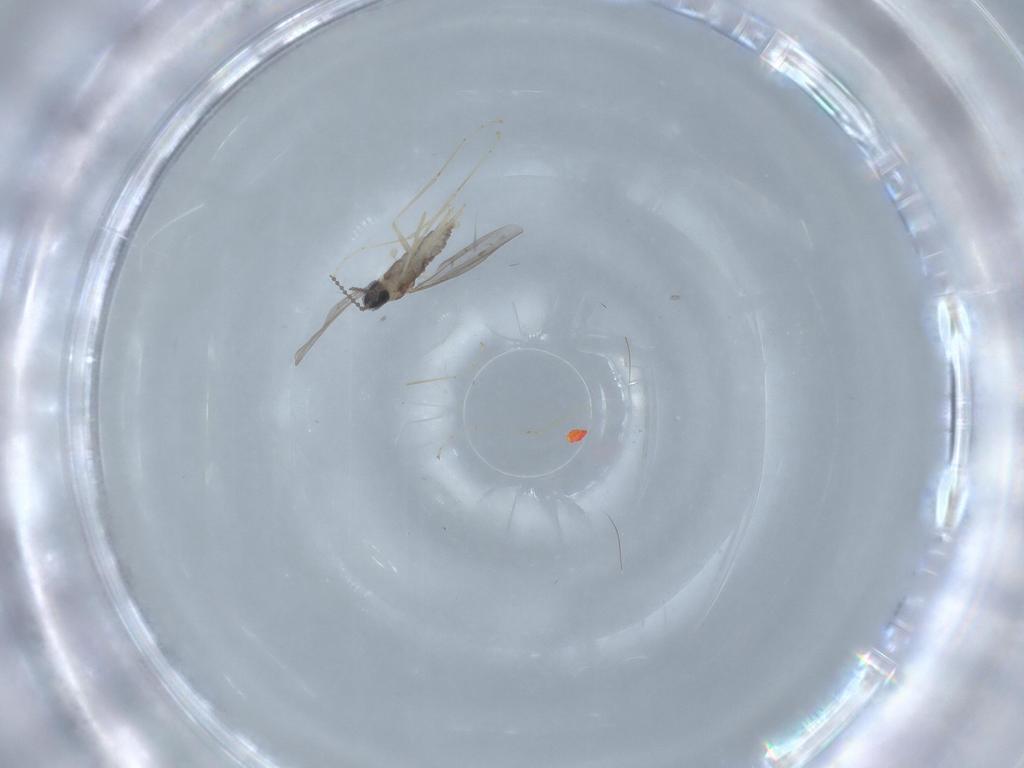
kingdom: Animalia
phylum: Arthropoda
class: Insecta
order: Diptera
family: Cecidomyiidae
